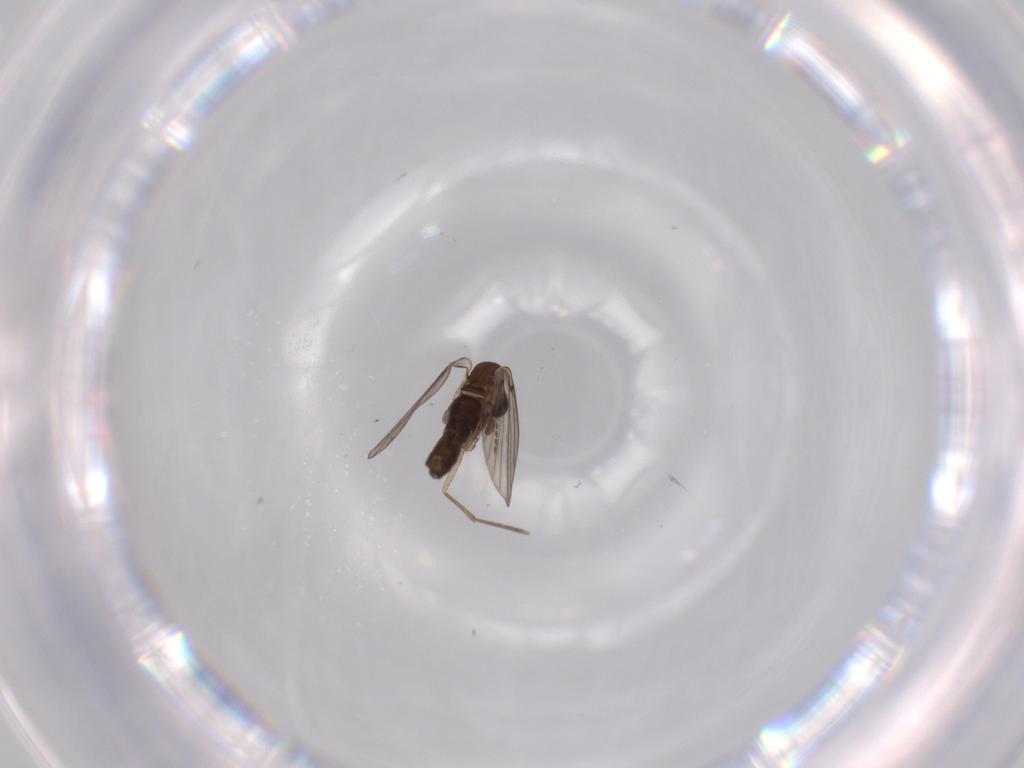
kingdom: Animalia
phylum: Arthropoda
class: Insecta
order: Diptera
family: Psychodidae
